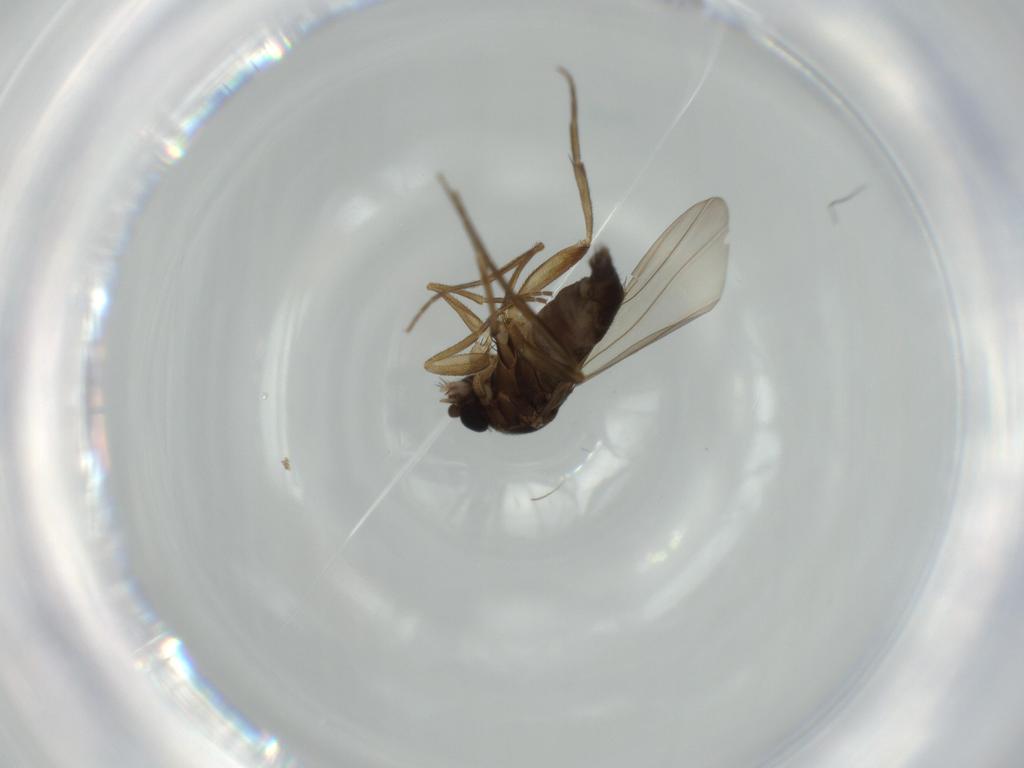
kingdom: Animalia
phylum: Arthropoda
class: Insecta
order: Diptera
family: Phoridae
